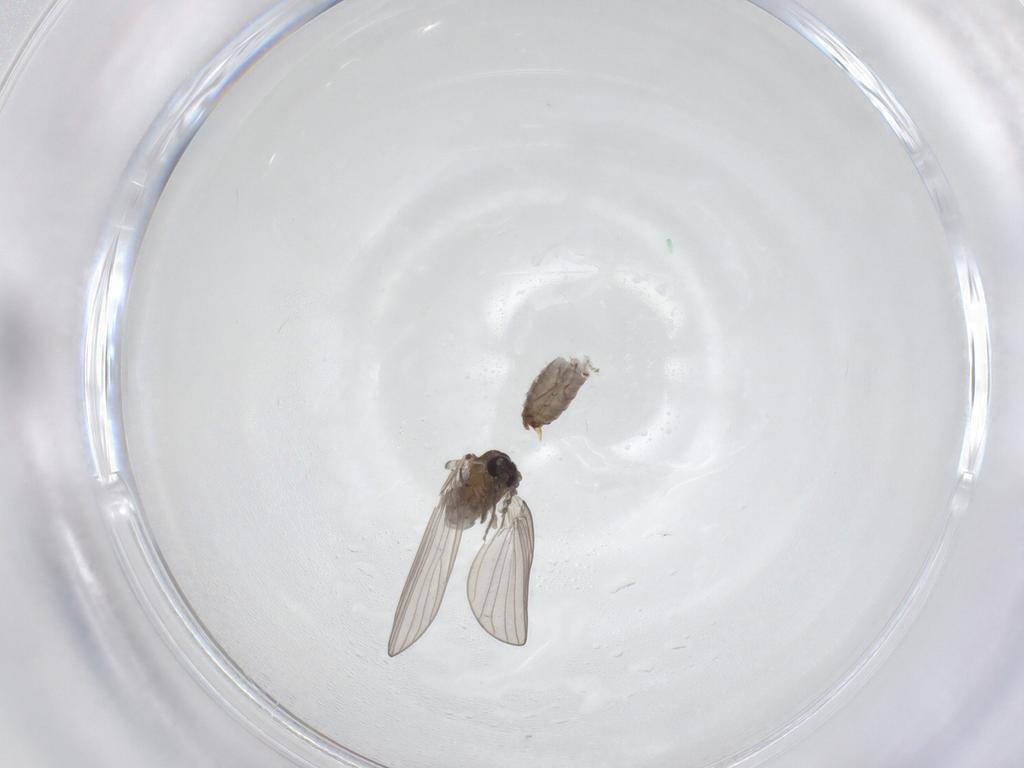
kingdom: Animalia
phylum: Arthropoda
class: Insecta
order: Diptera
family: Psychodidae
